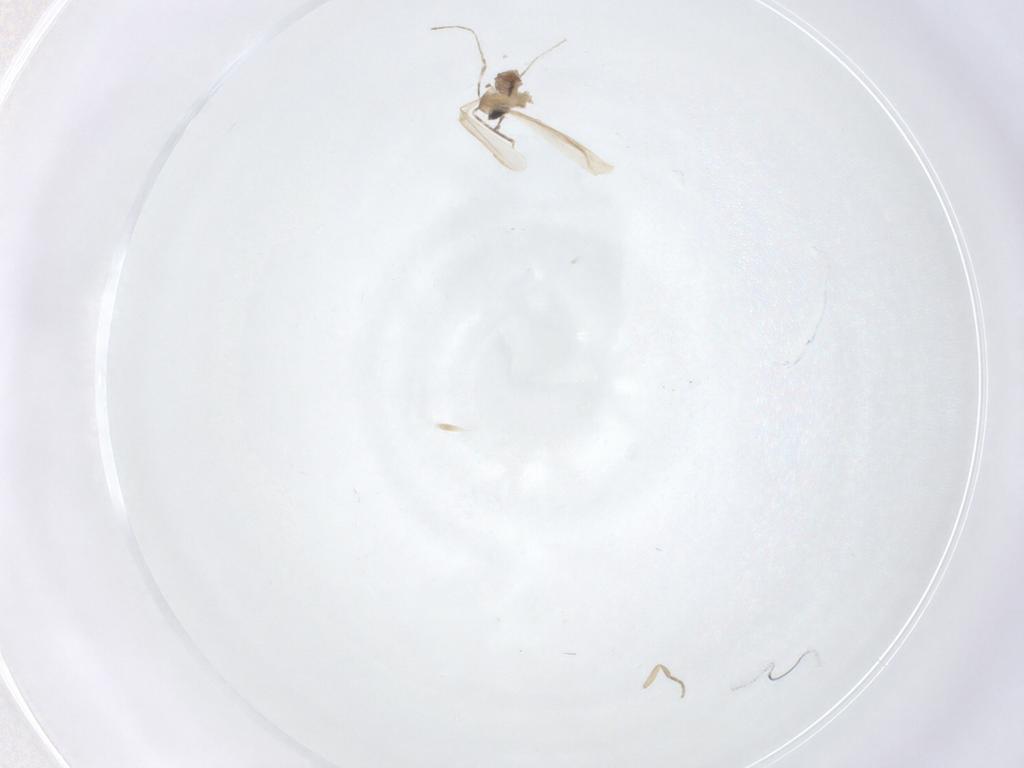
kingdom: Animalia
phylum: Arthropoda
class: Insecta
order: Diptera
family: Cecidomyiidae
